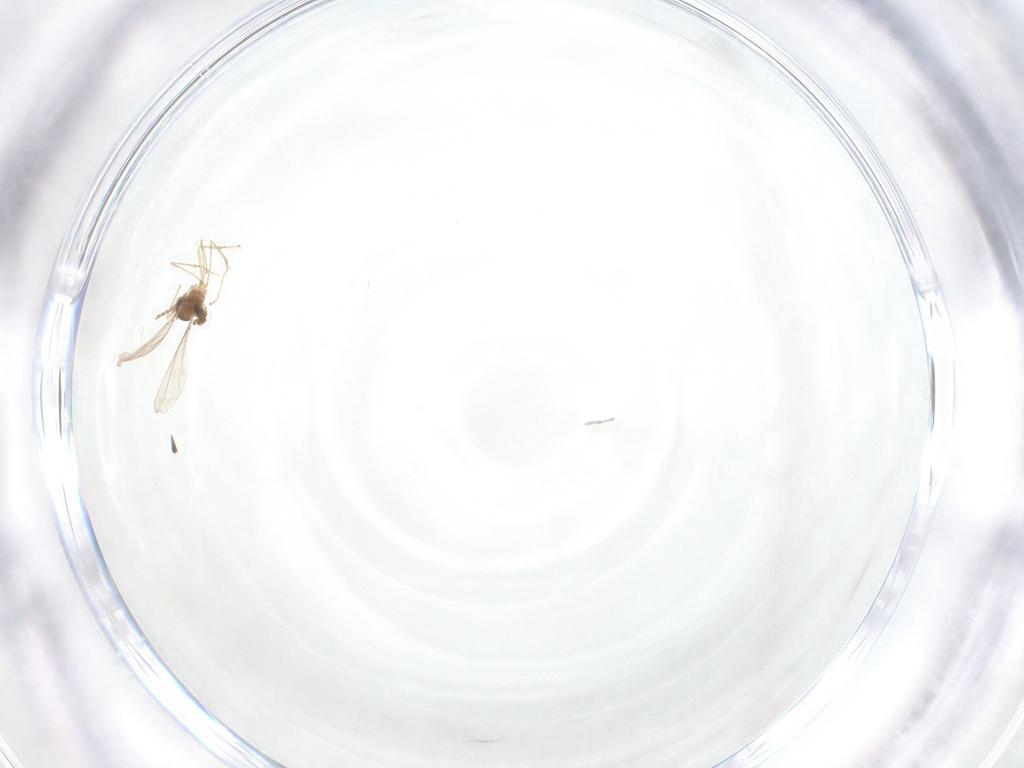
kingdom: Animalia
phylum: Arthropoda
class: Insecta
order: Diptera
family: Cecidomyiidae
